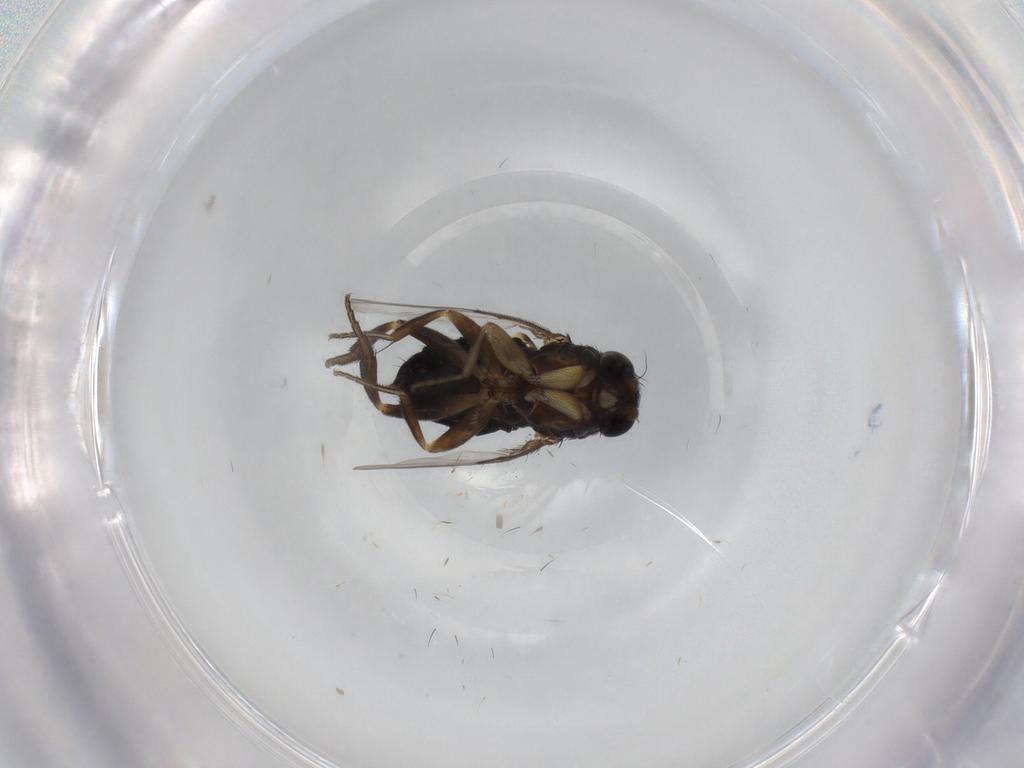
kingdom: Animalia
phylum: Arthropoda
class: Insecta
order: Diptera
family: Phoridae
